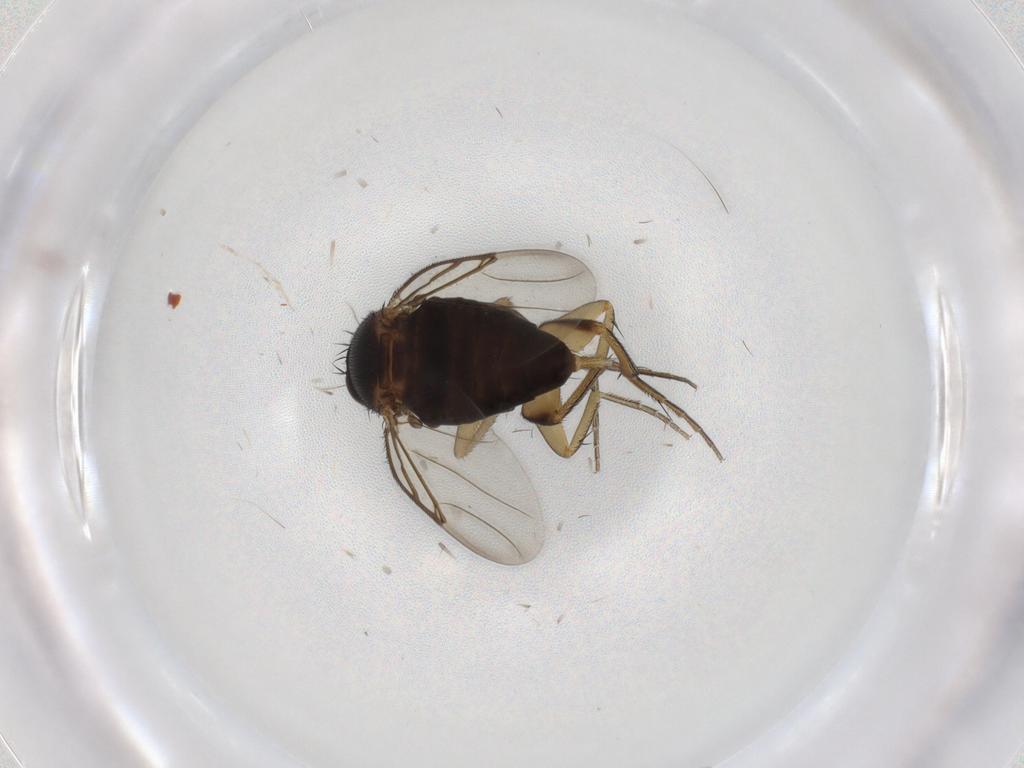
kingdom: Animalia
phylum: Arthropoda
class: Insecta
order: Diptera
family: Phoridae
